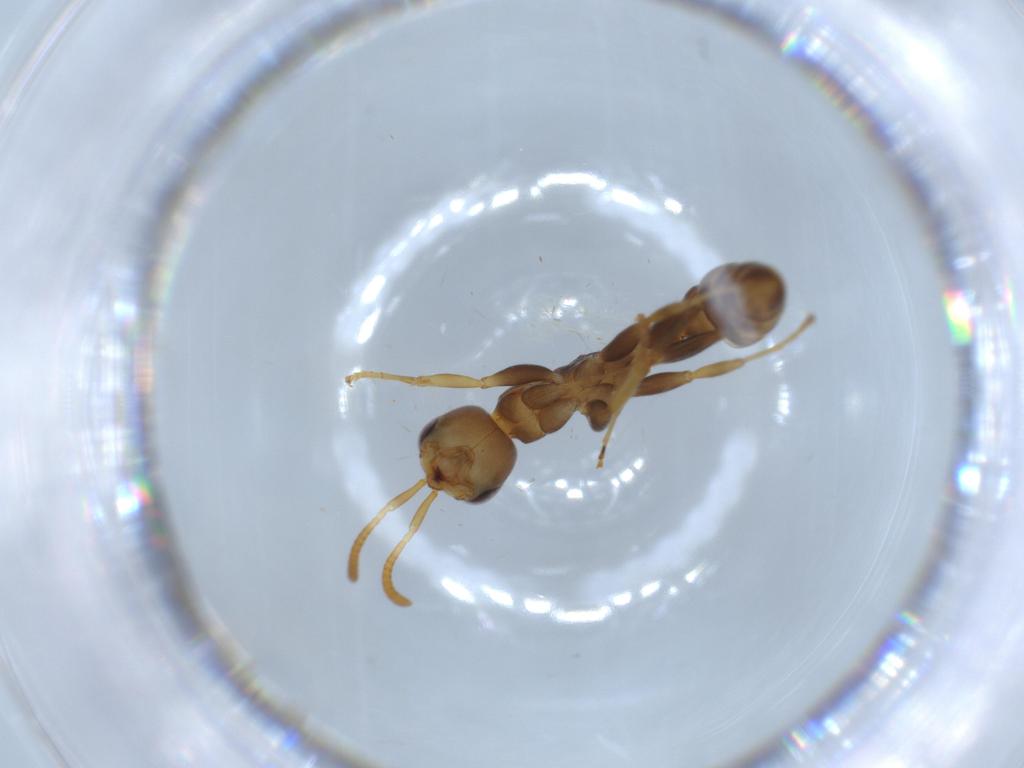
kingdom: Animalia
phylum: Arthropoda
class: Insecta
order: Hymenoptera
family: Formicidae
